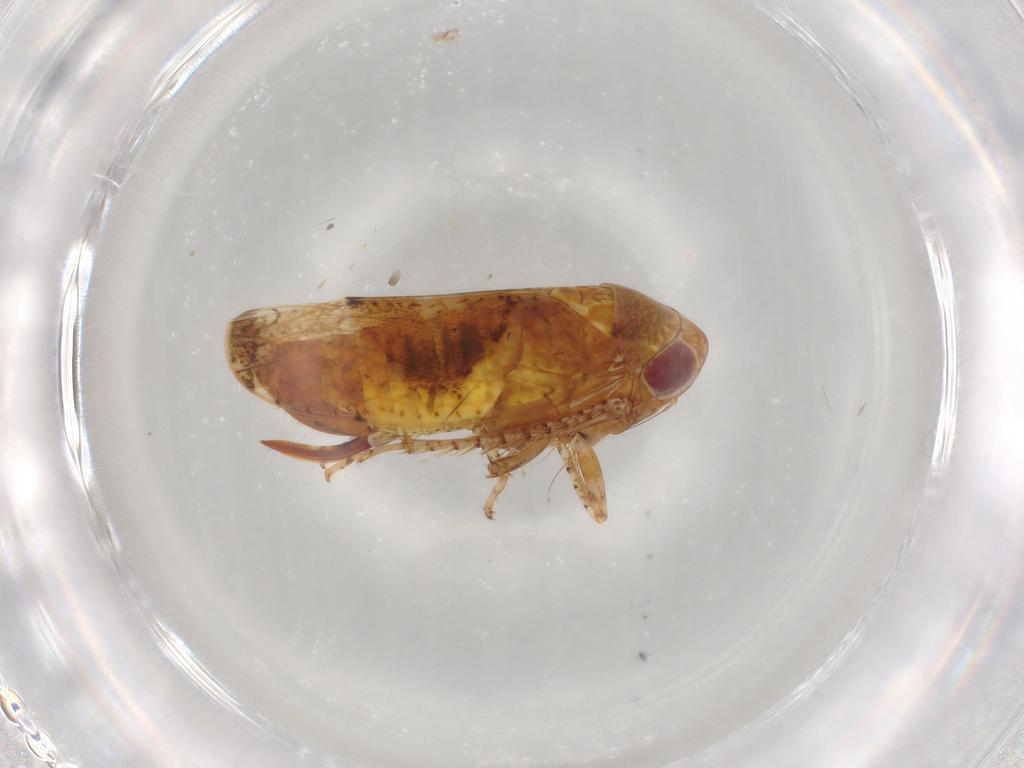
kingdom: Animalia
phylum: Arthropoda
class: Insecta
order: Hemiptera
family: Cicadellidae
